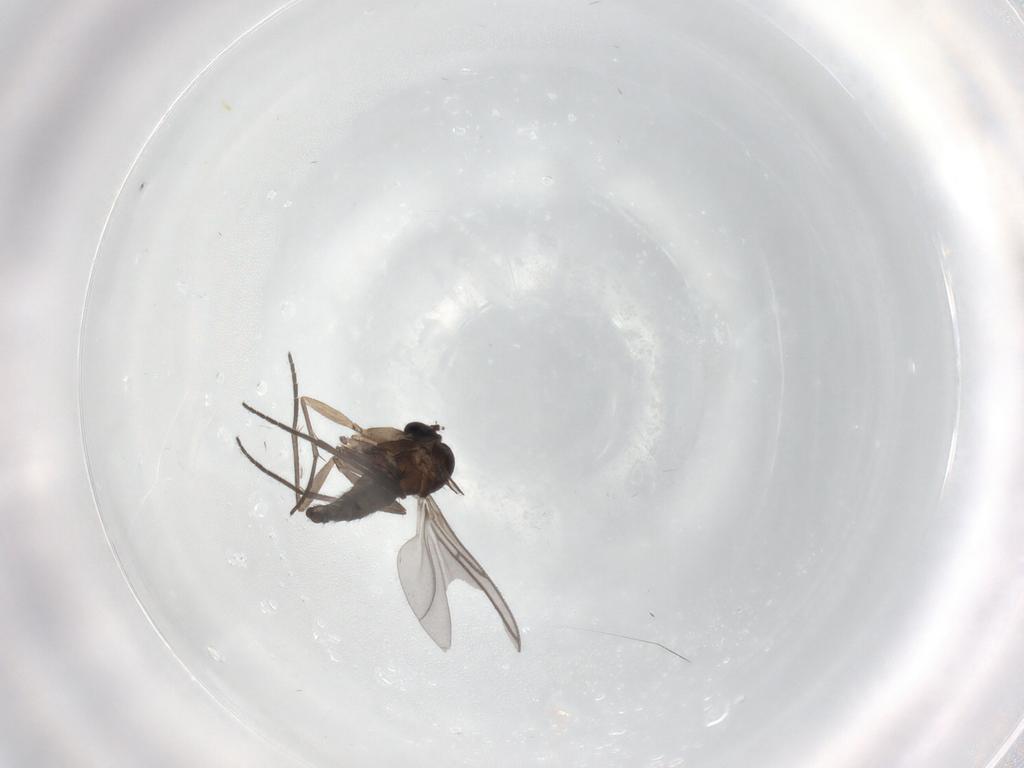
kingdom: Animalia
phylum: Arthropoda
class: Insecta
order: Diptera
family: Sciaridae
